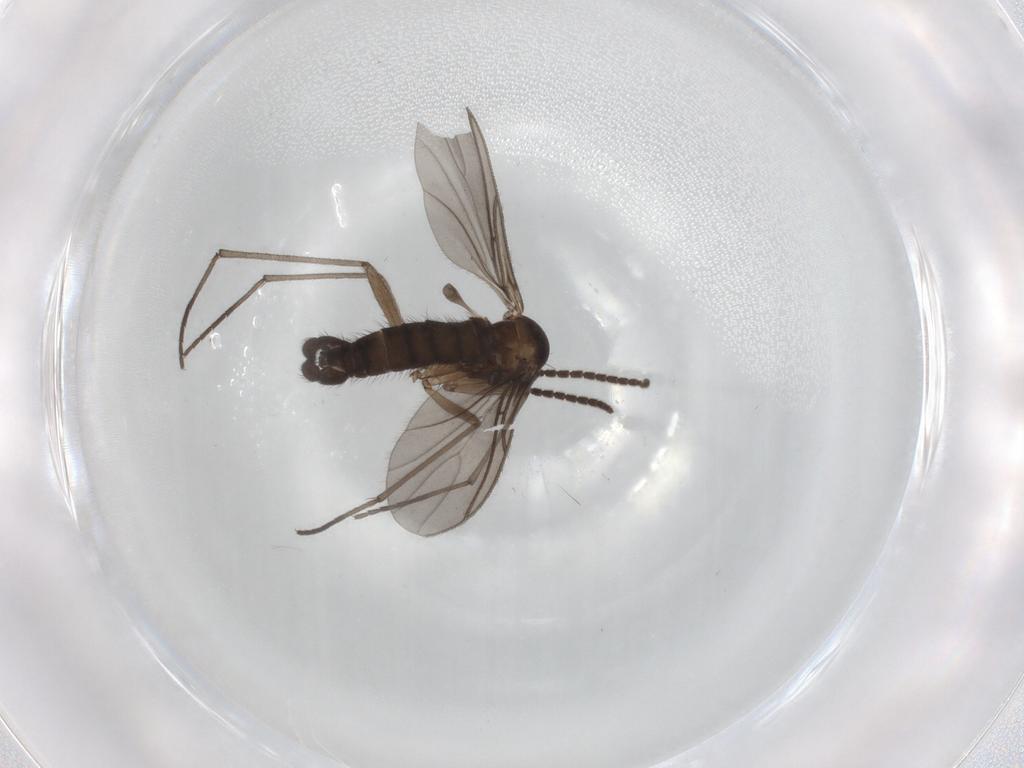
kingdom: Animalia
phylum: Arthropoda
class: Insecta
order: Diptera
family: Sciaridae
